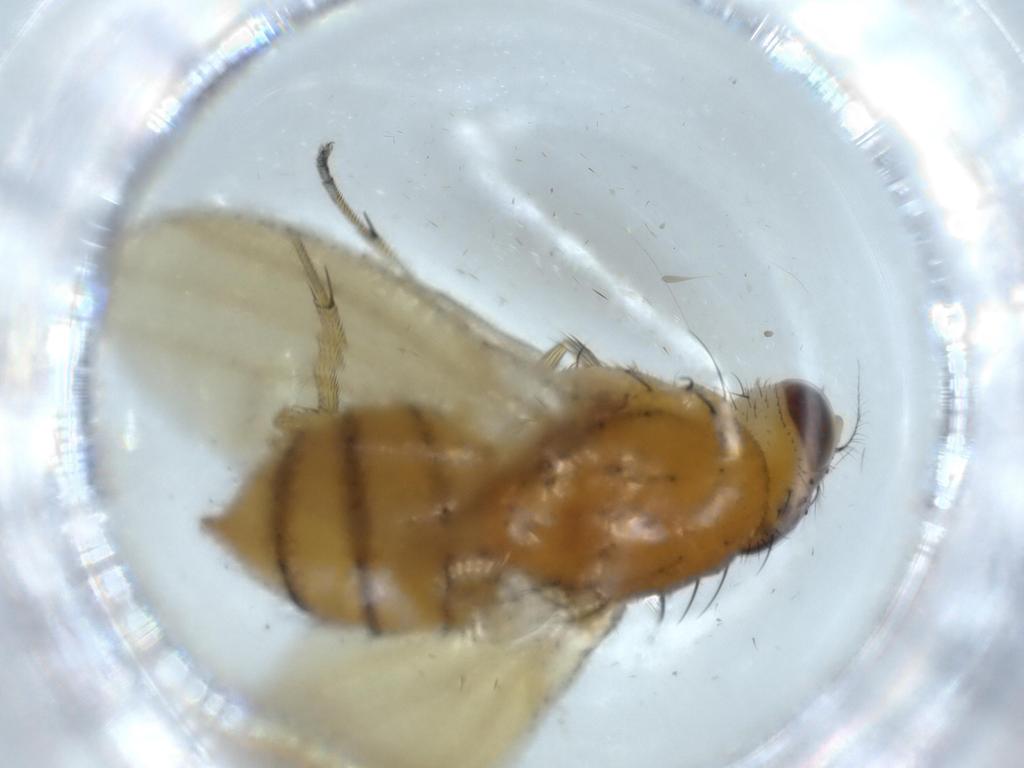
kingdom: Animalia
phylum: Arthropoda
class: Insecta
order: Diptera
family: Sciaridae
